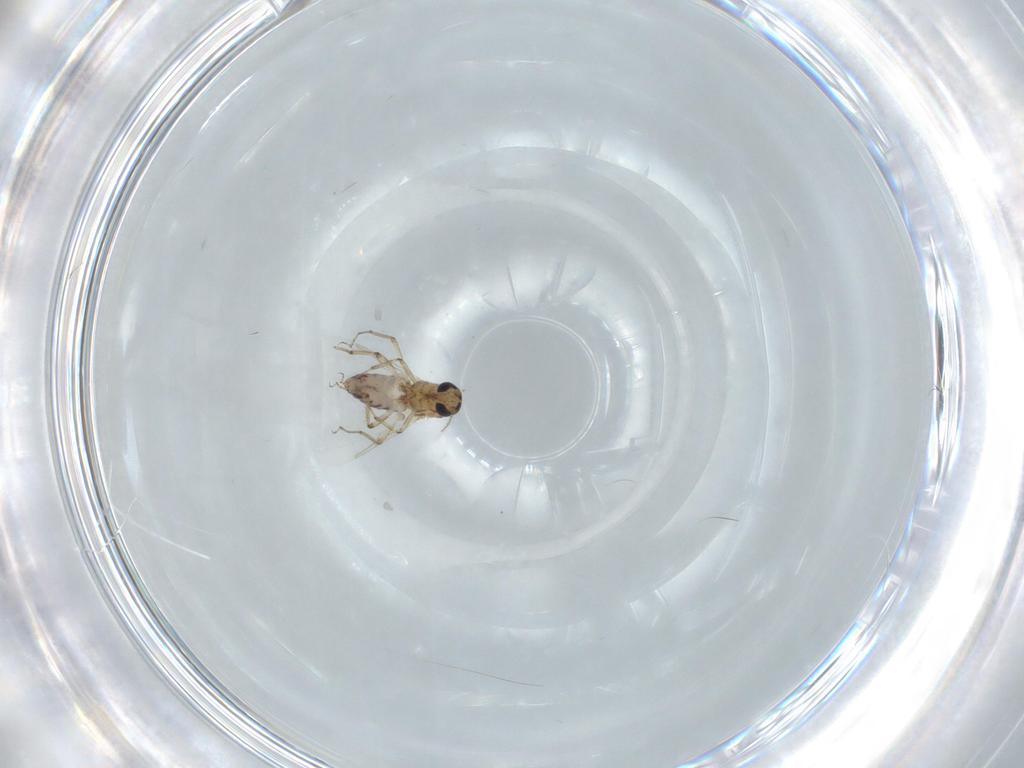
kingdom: Animalia
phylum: Arthropoda
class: Insecta
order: Diptera
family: Ceratopogonidae
